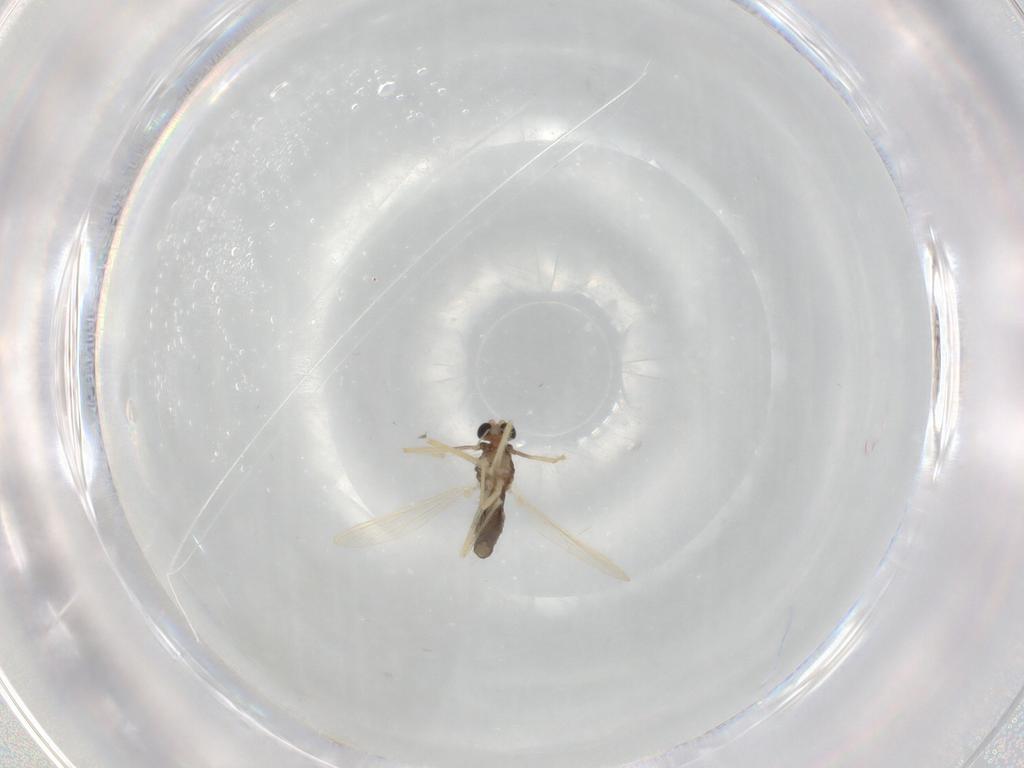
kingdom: Animalia
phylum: Arthropoda
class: Insecta
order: Diptera
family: Chironomidae
